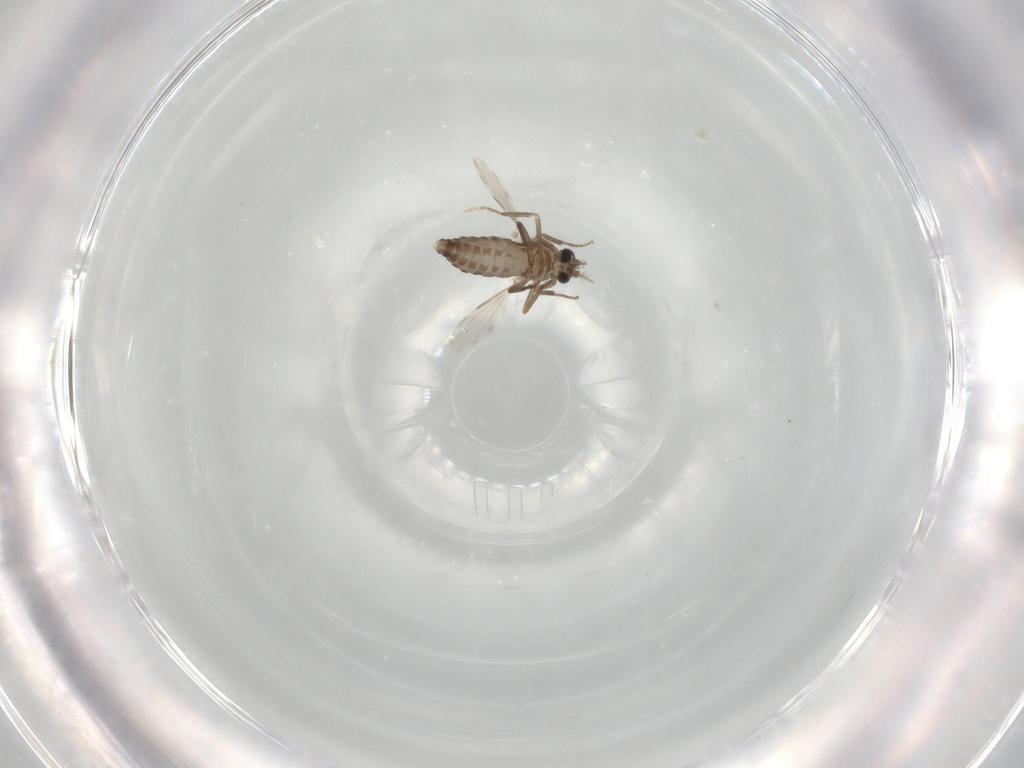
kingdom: Animalia
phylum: Arthropoda
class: Insecta
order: Diptera
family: Ceratopogonidae
